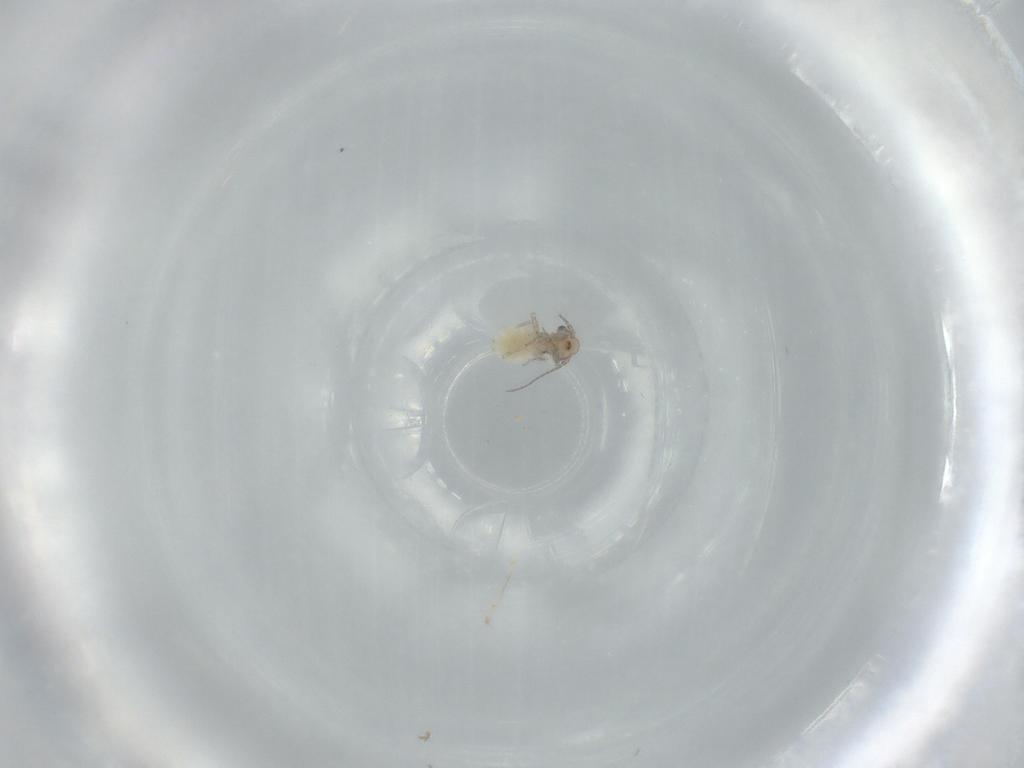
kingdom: Animalia
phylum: Arthropoda
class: Insecta
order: Psocodea
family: Lepidopsocidae
